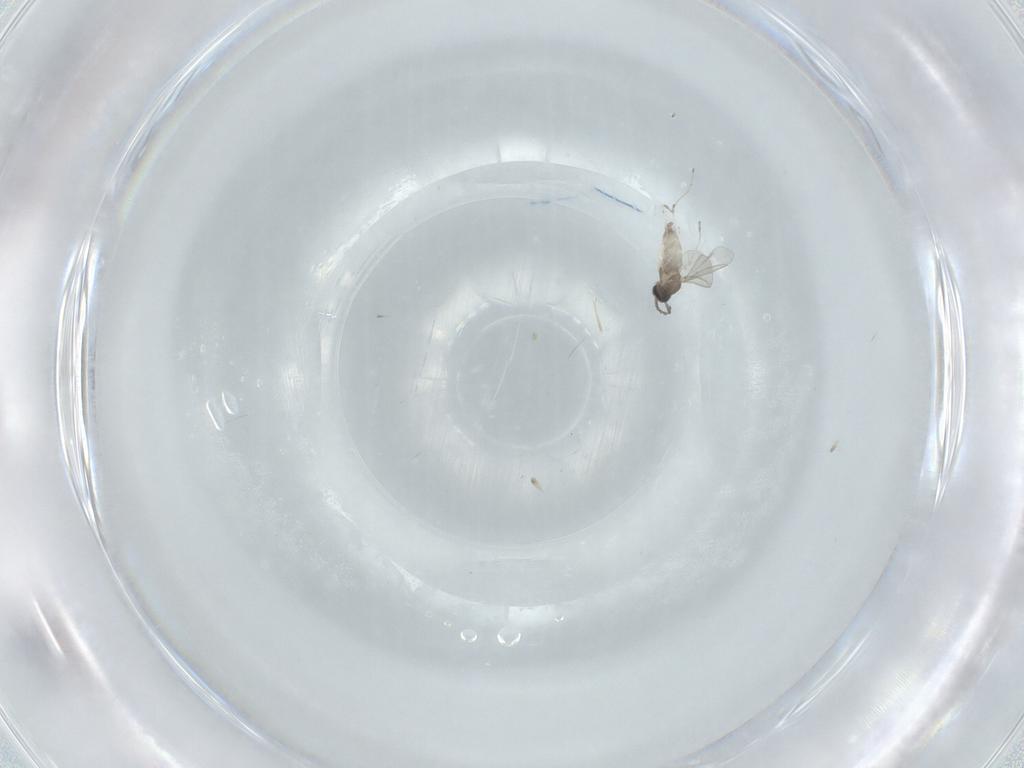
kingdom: Animalia
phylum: Arthropoda
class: Insecta
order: Diptera
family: Cecidomyiidae
